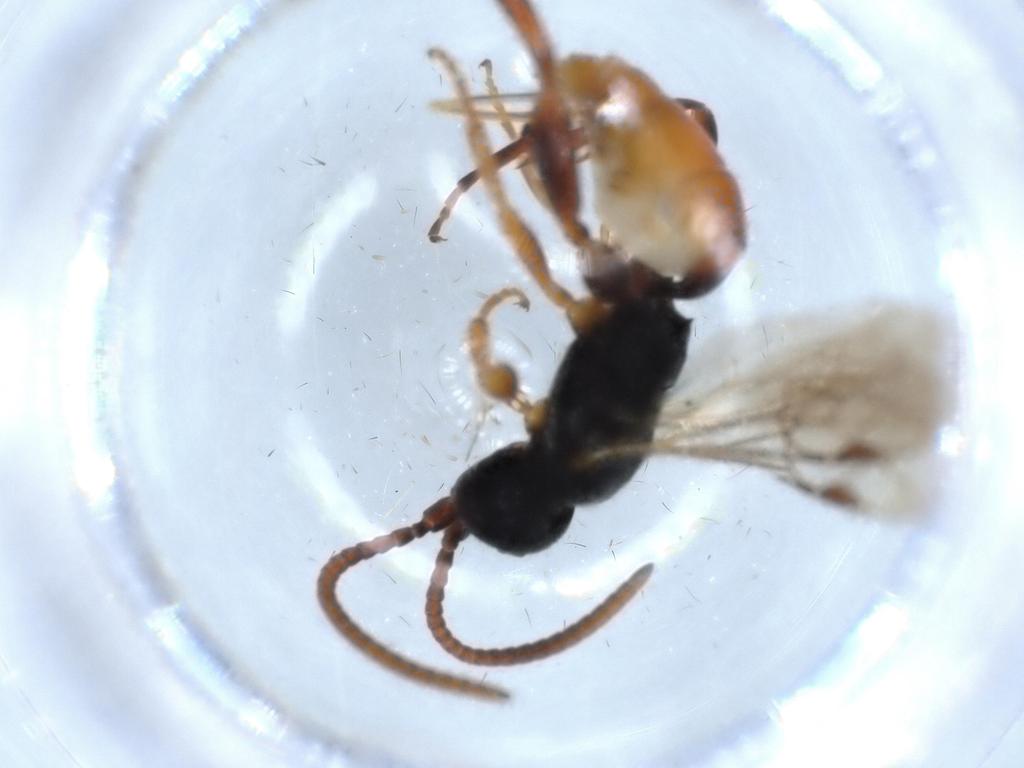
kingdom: Animalia
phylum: Arthropoda
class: Insecta
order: Hymenoptera
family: Ichneumonidae
